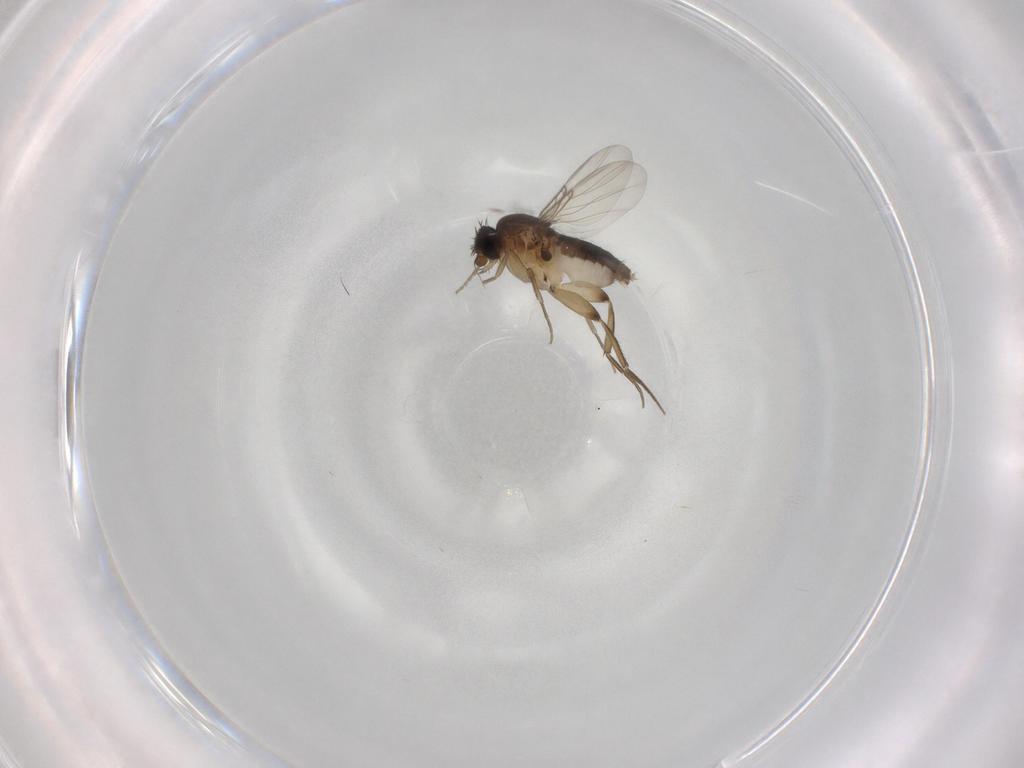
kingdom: Animalia
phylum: Arthropoda
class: Insecta
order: Diptera
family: Phoridae
